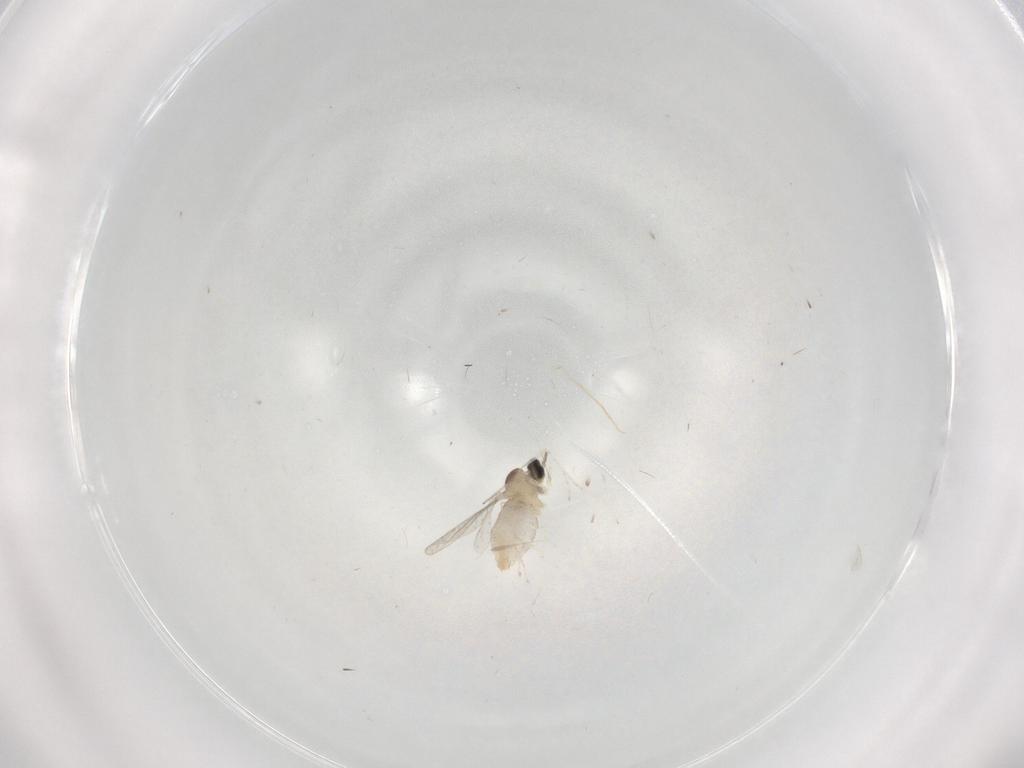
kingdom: Animalia
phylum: Arthropoda
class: Insecta
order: Diptera
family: Cecidomyiidae
